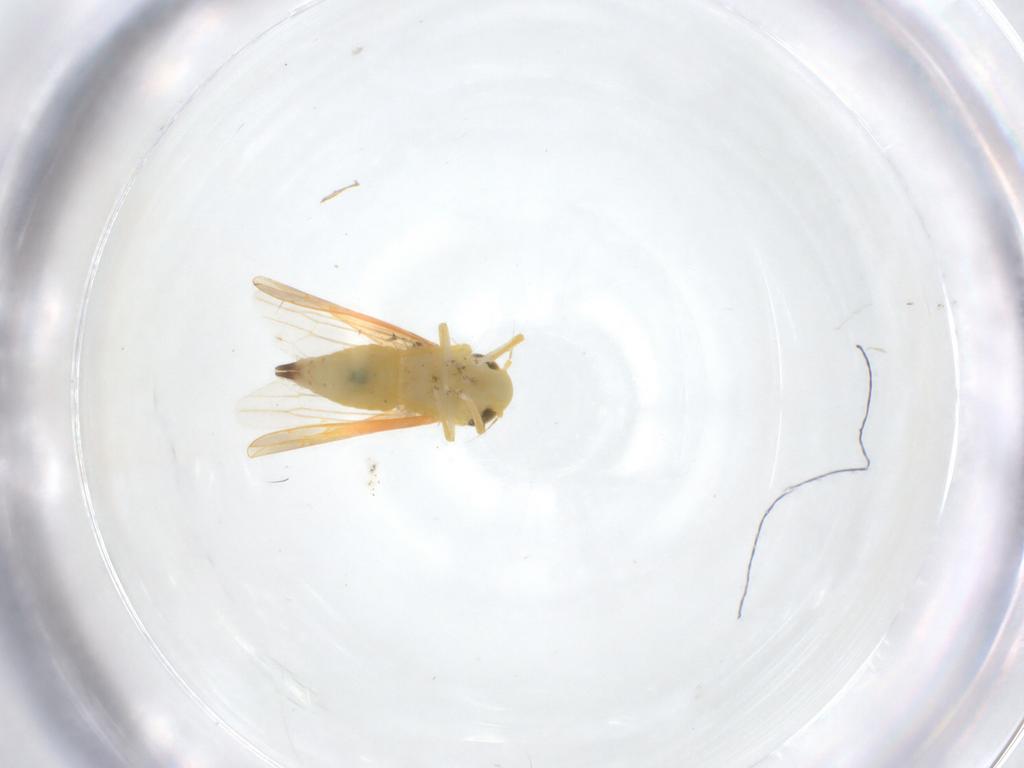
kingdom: Animalia
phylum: Arthropoda
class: Insecta
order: Hemiptera
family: Cicadellidae
